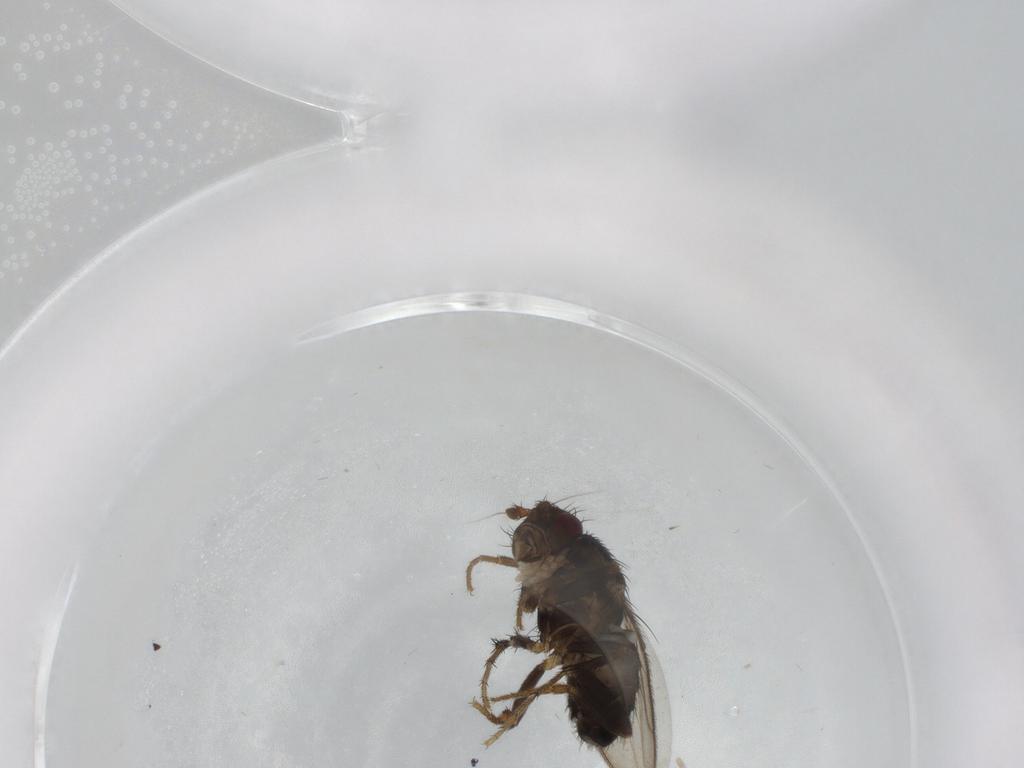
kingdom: Animalia
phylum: Arthropoda
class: Insecta
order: Diptera
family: Sphaeroceridae
